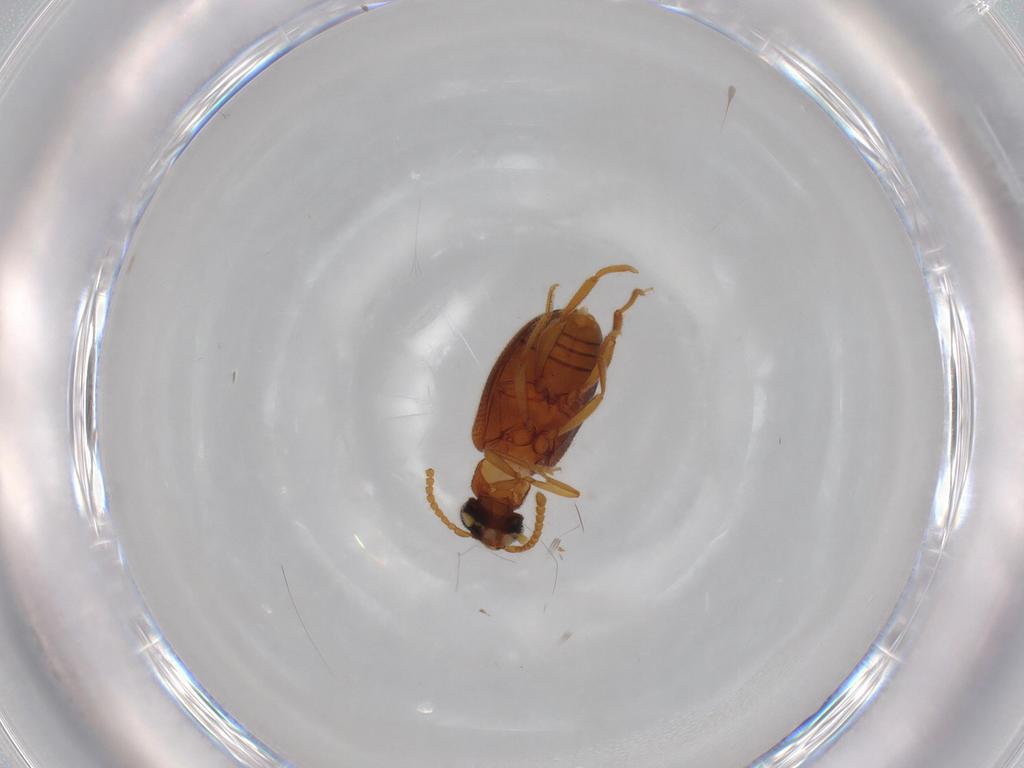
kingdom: Animalia
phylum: Arthropoda
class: Insecta
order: Coleoptera
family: Aderidae
